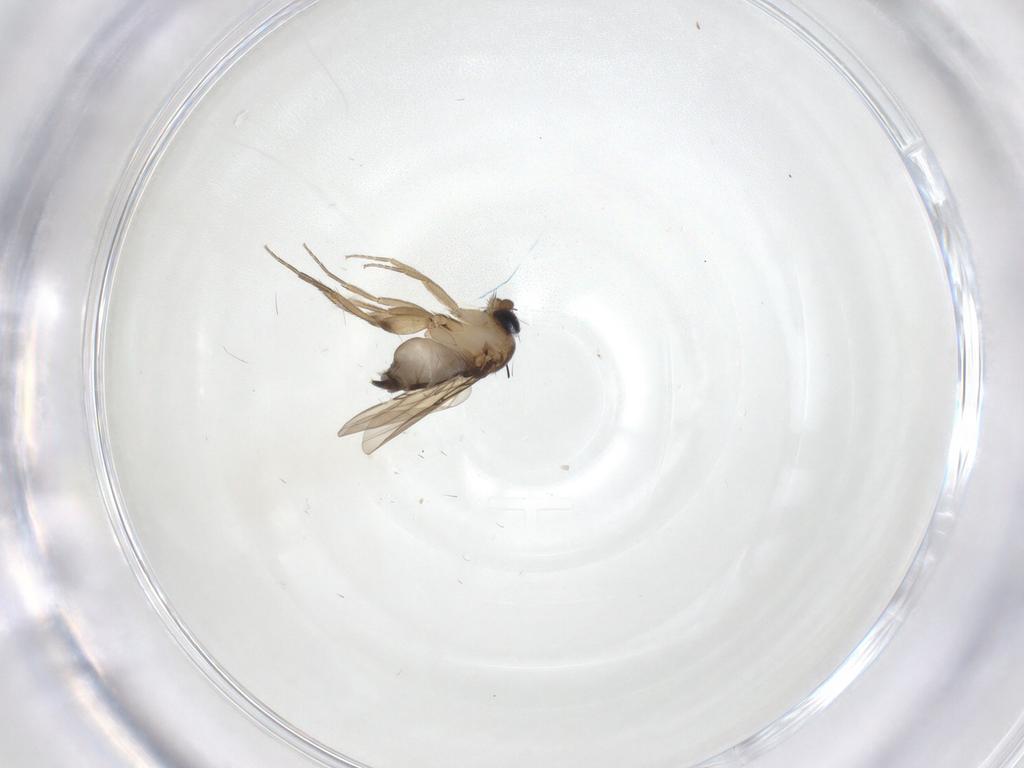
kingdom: Animalia
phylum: Arthropoda
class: Insecta
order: Diptera
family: Phoridae
